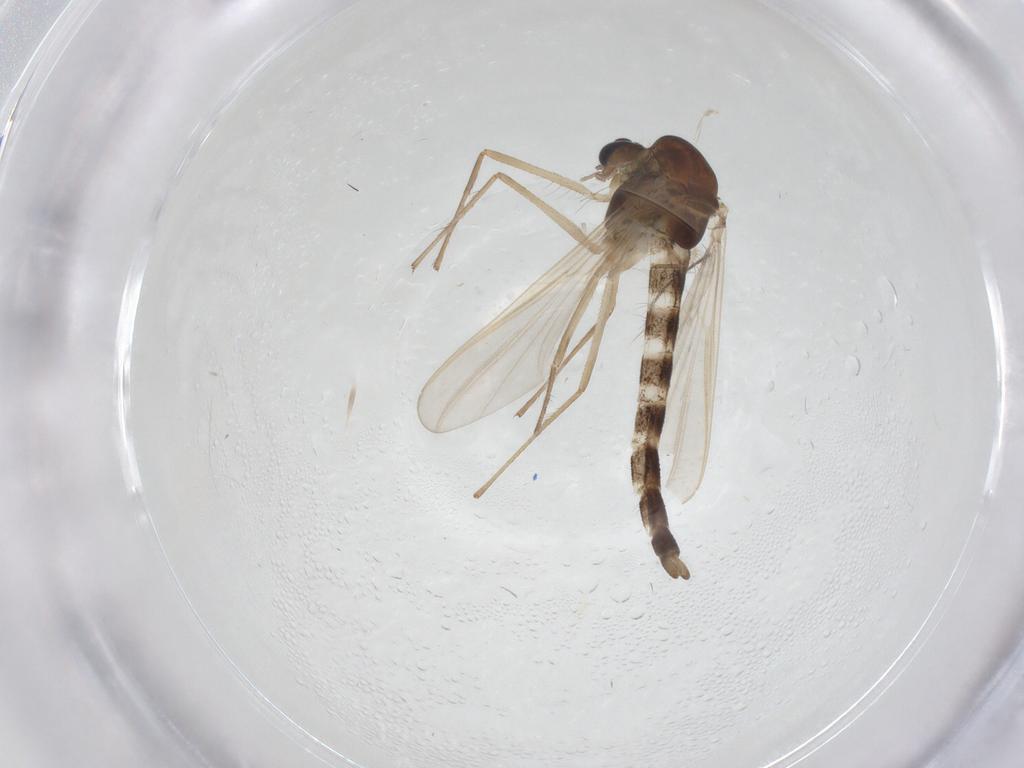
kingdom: Animalia
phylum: Arthropoda
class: Insecta
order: Diptera
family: Chironomidae
